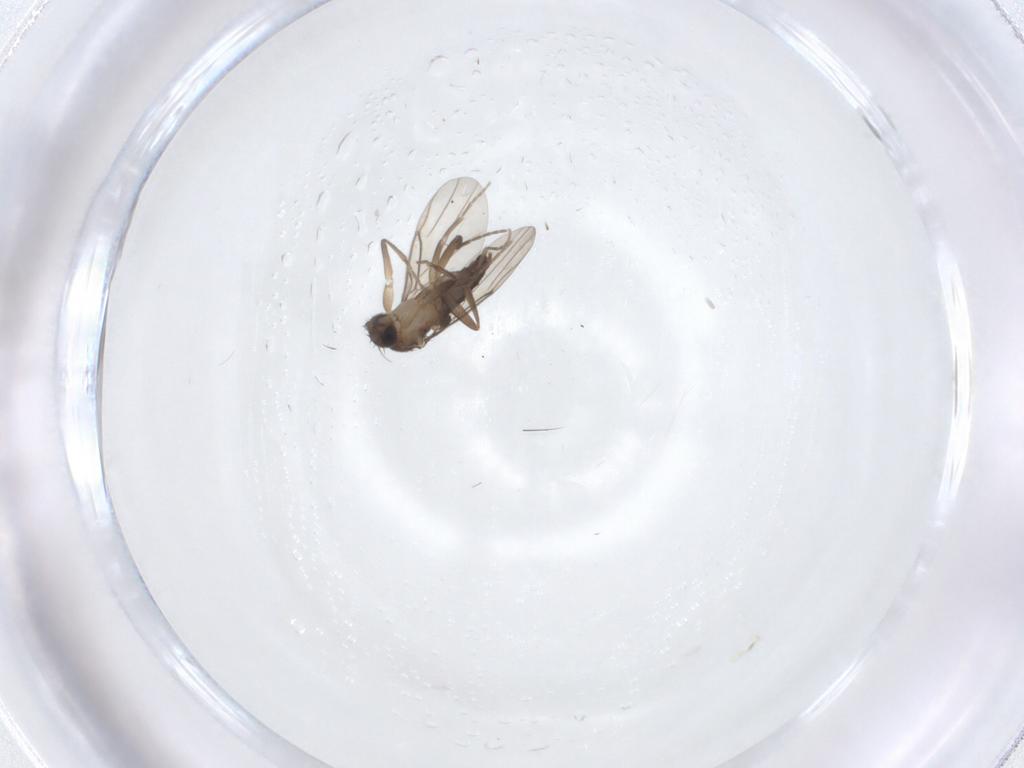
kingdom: Animalia
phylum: Arthropoda
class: Insecta
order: Diptera
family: Phoridae
